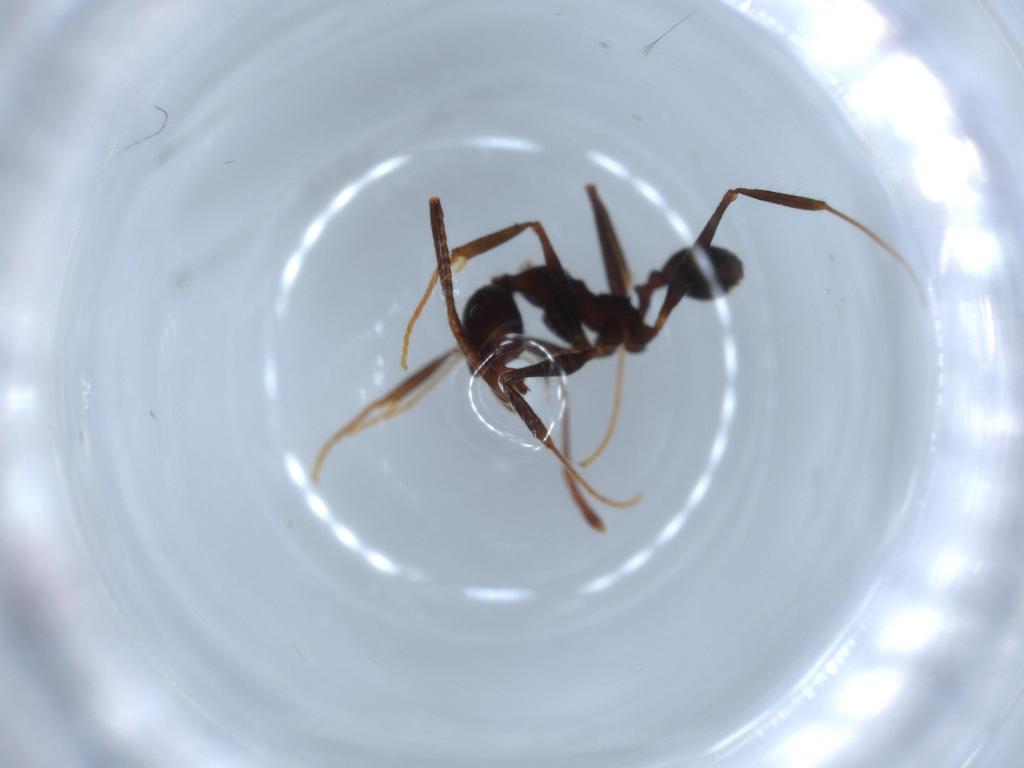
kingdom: Animalia
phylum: Arthropoda
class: Insecta
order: Hymenoptera
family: Formicidae
